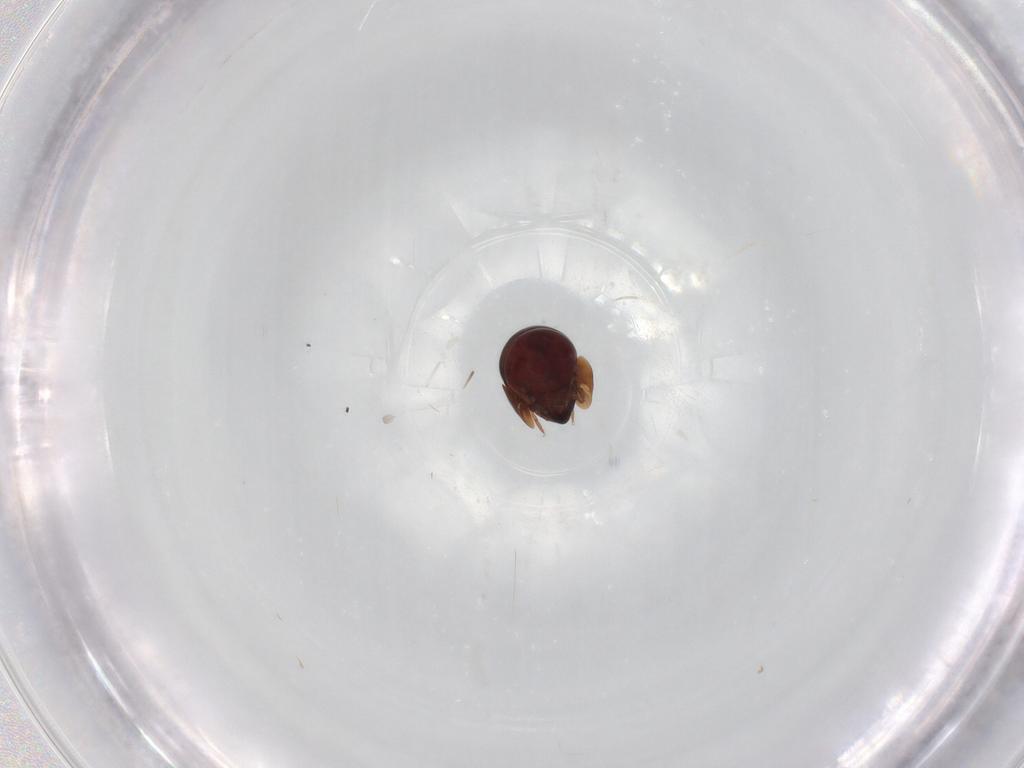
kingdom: Animalia
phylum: Arthropoda
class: Arachnida
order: Sarcoptiformes
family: Galumnidae
